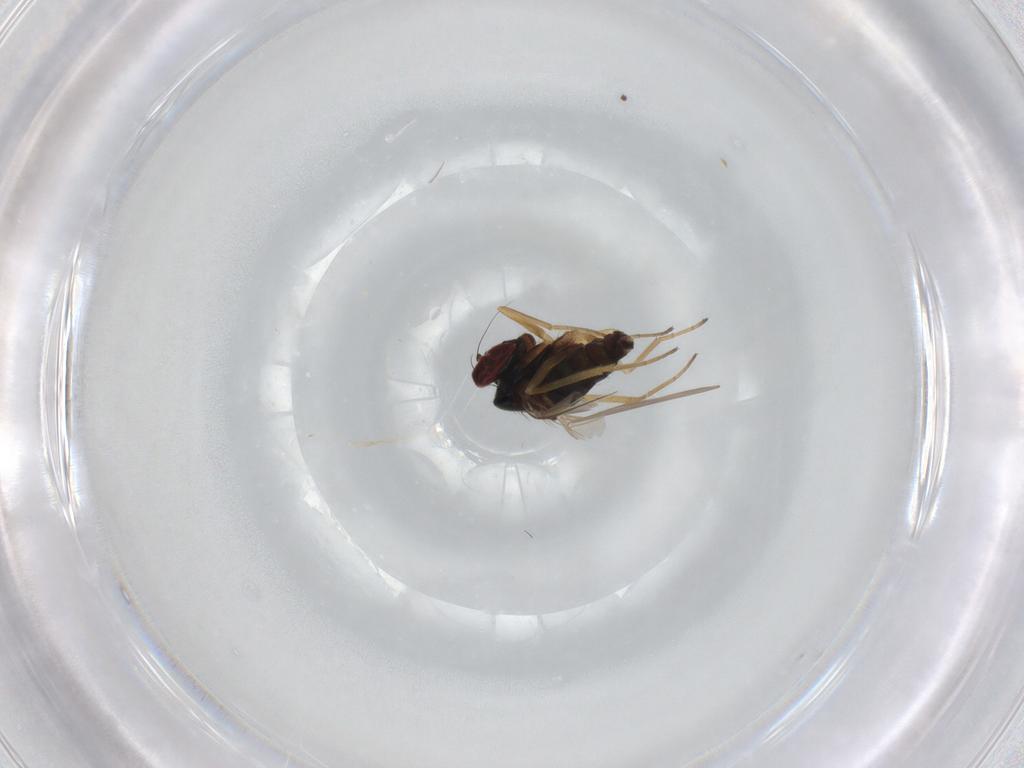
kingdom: Animalia
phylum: Arthropoda
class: Insecta
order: Diptera
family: Dolichopodidae
